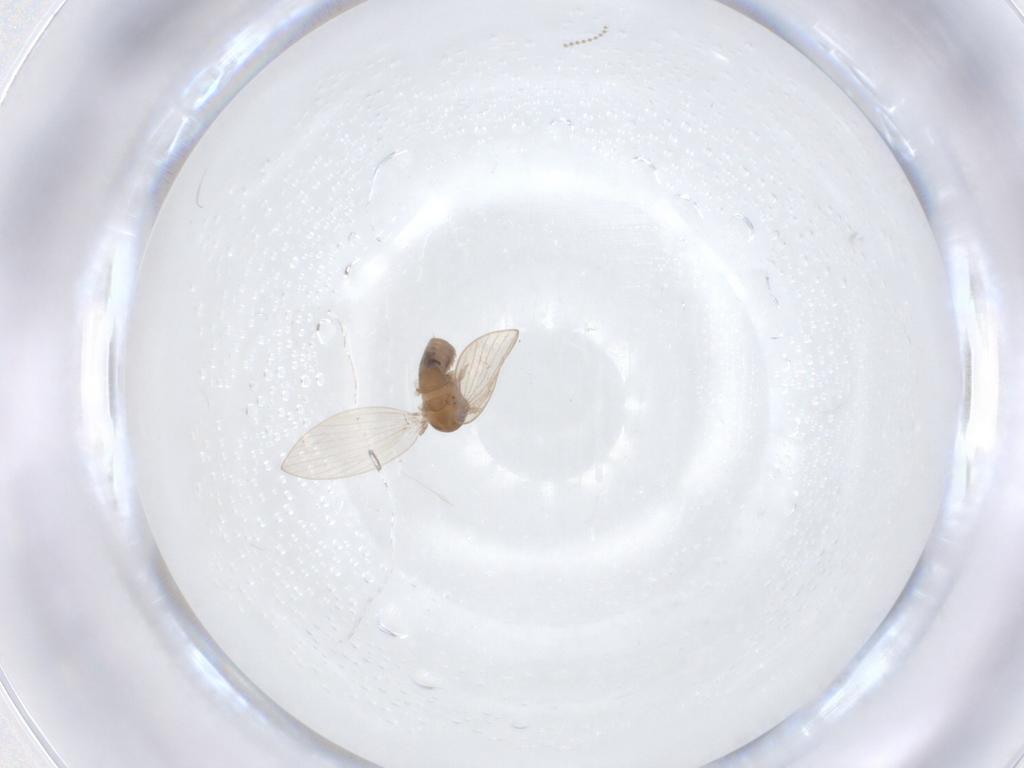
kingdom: Animalia
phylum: Arthropoda
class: Insecta
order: Diptera
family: Psychodidae
